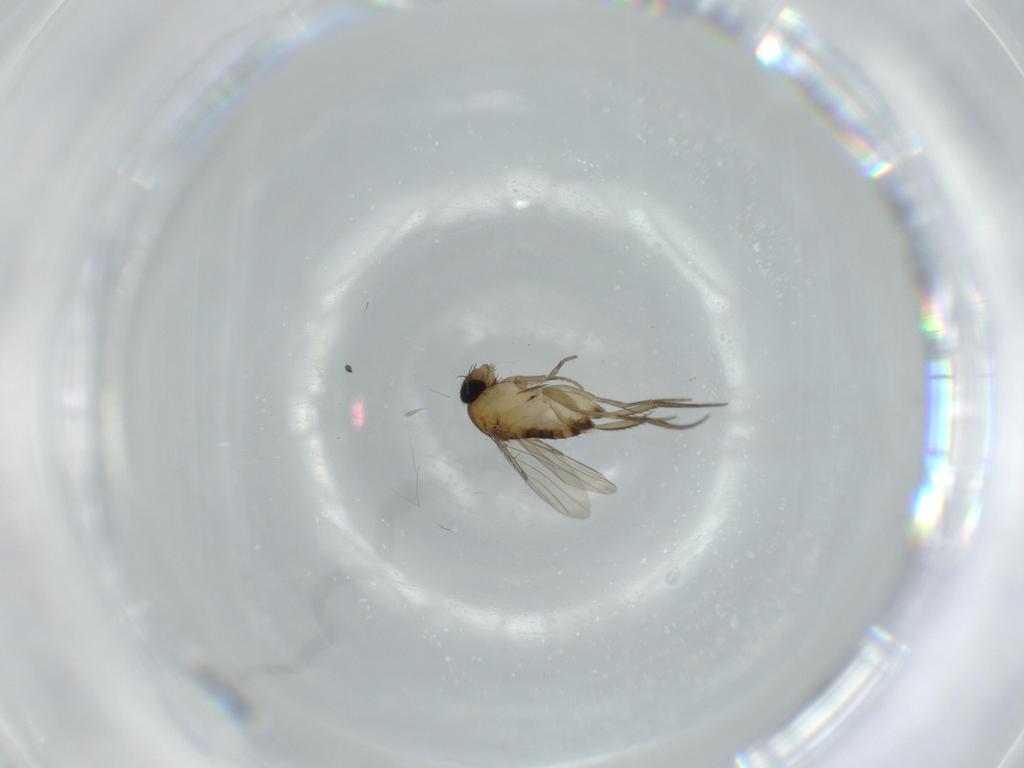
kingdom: Animalia
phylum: Arthropoda
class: Insecta
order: Diptera
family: Phoridae
